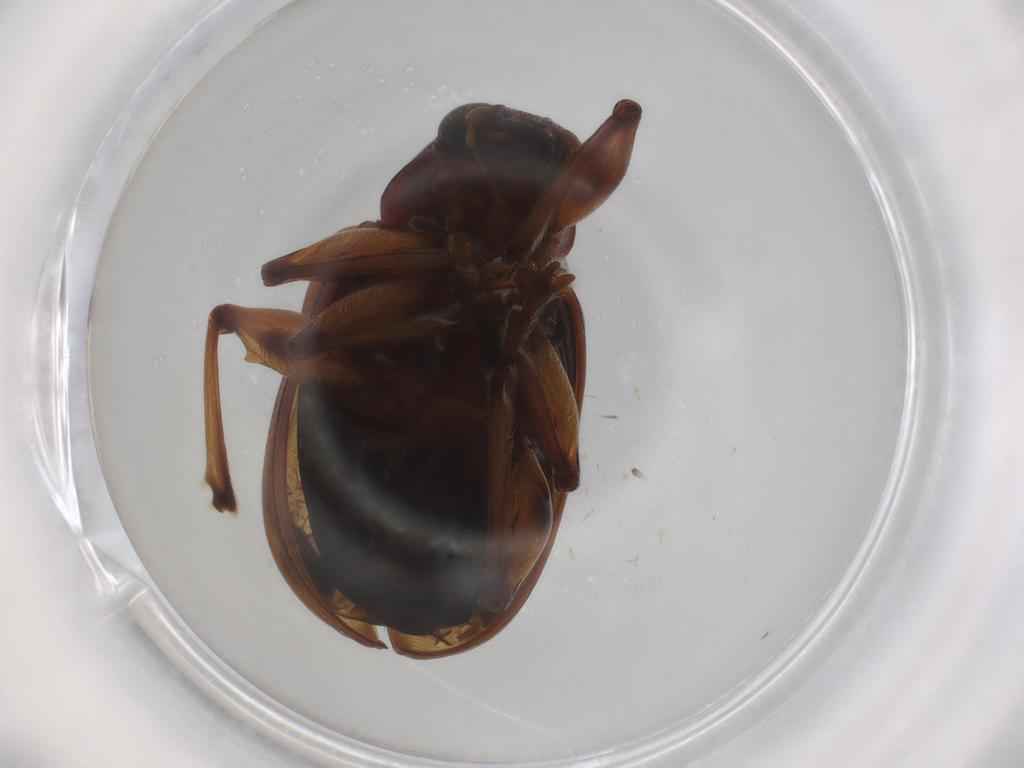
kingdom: Animalia
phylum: Arthropoda
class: Insecta
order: Coleoptera
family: Chrysomelidae
